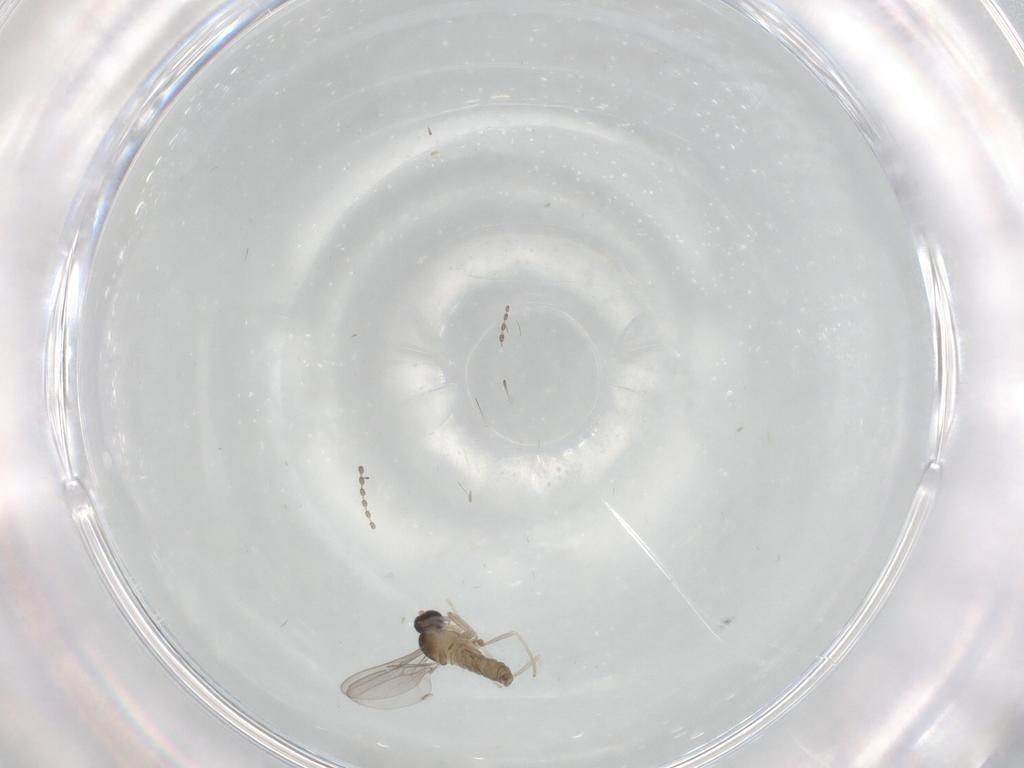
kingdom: Animalia
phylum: Arthropoda
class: Insecta
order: Diptera
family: Cecidomyiidae
